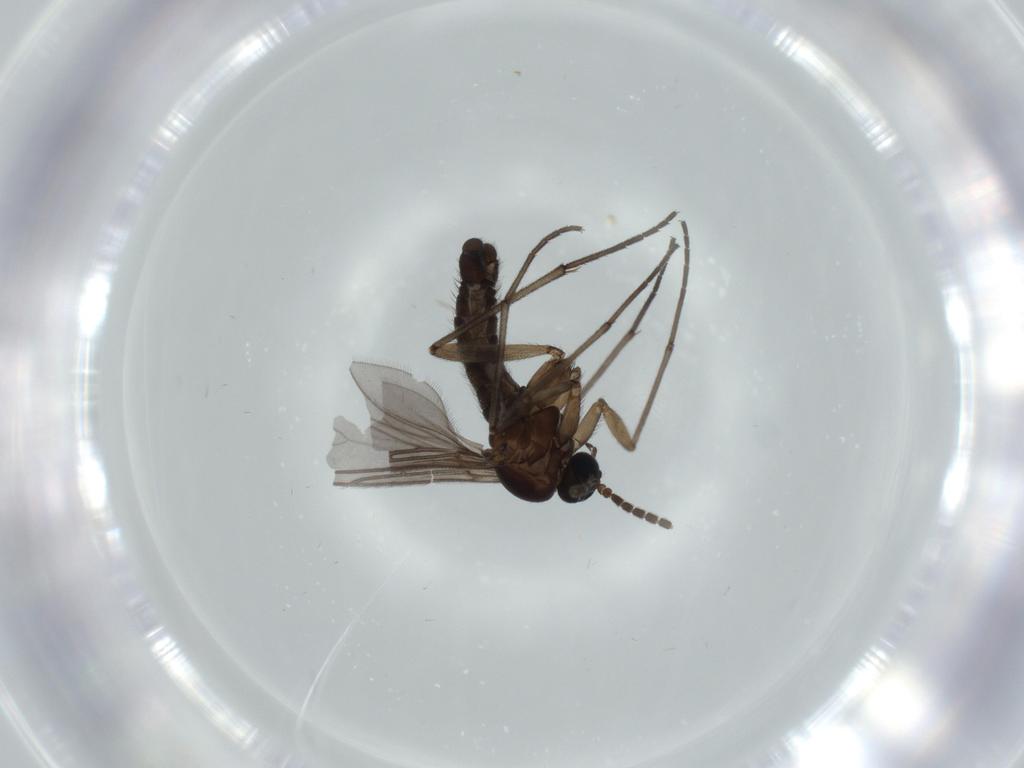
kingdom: Animalia
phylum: Arthropoda
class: Insecta
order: Diptera
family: Sciaridae
